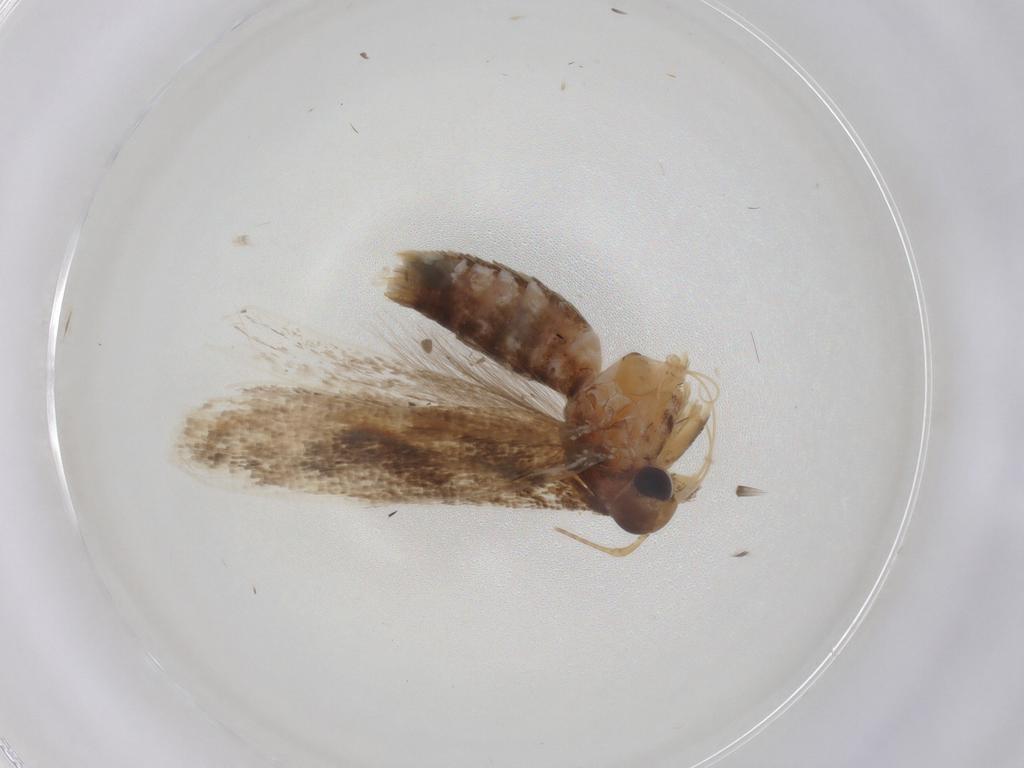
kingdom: Animalia
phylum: Arthropoda
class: Insecta
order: Lepidoptera
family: Gelechiidae
